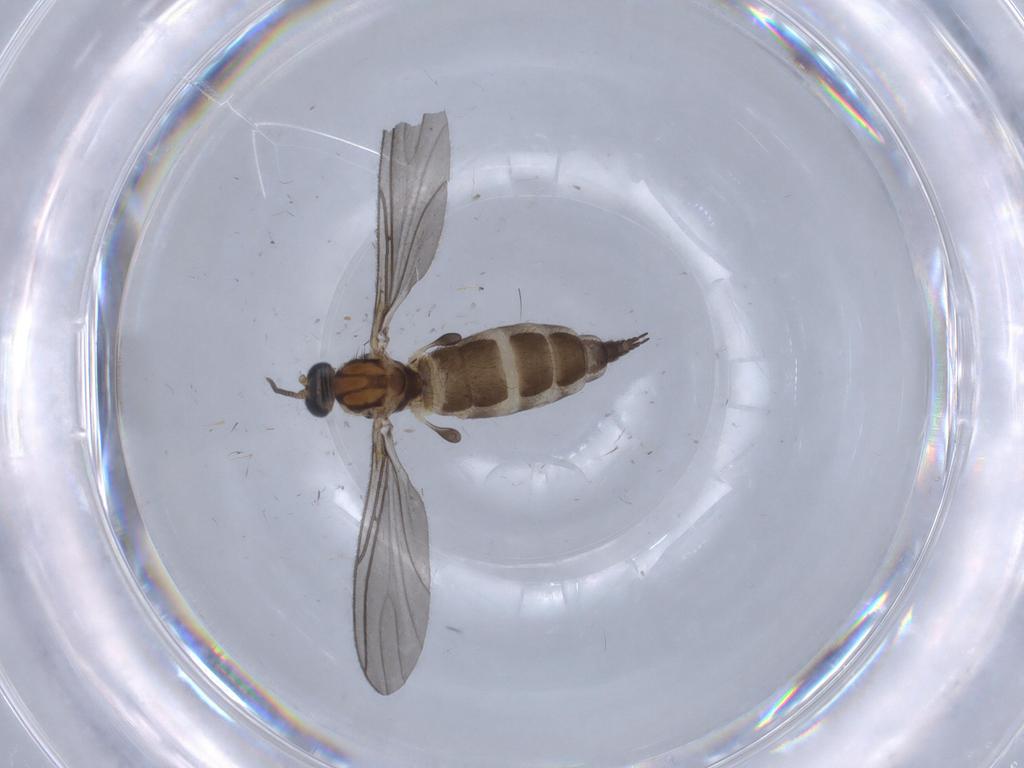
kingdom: Animalia
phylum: Arthropoda
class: Insecta
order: Diptera
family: Sciaridae
